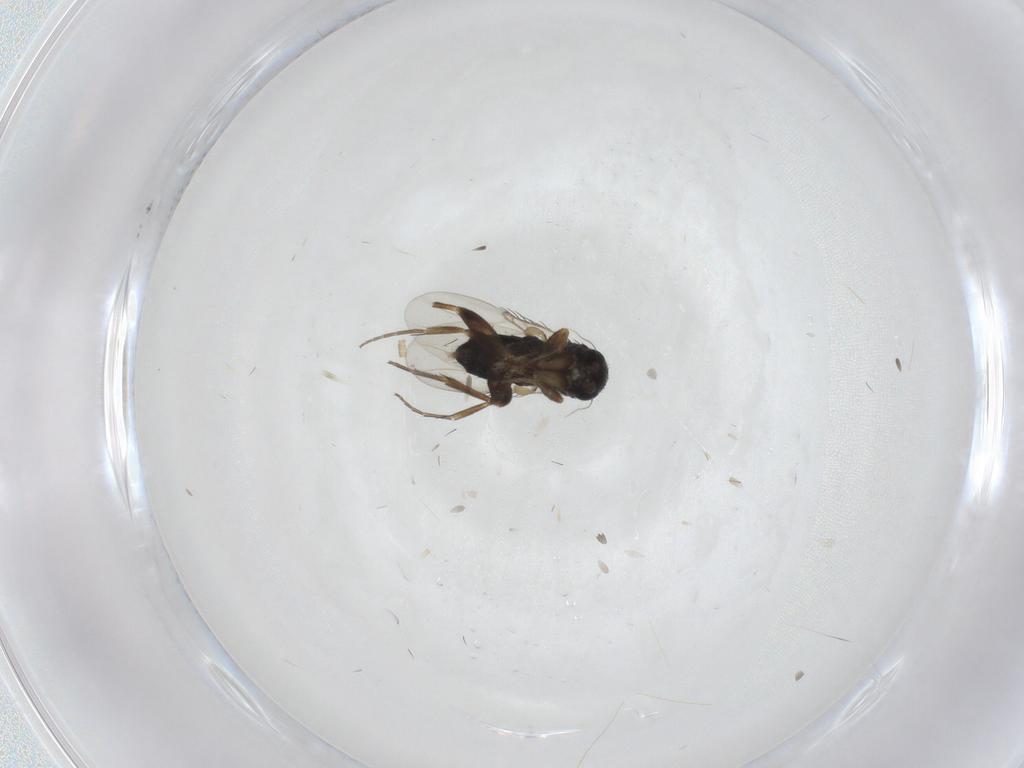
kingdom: Animalia
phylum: Arthropoda
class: Insecta
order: Diptera
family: Phoridae
